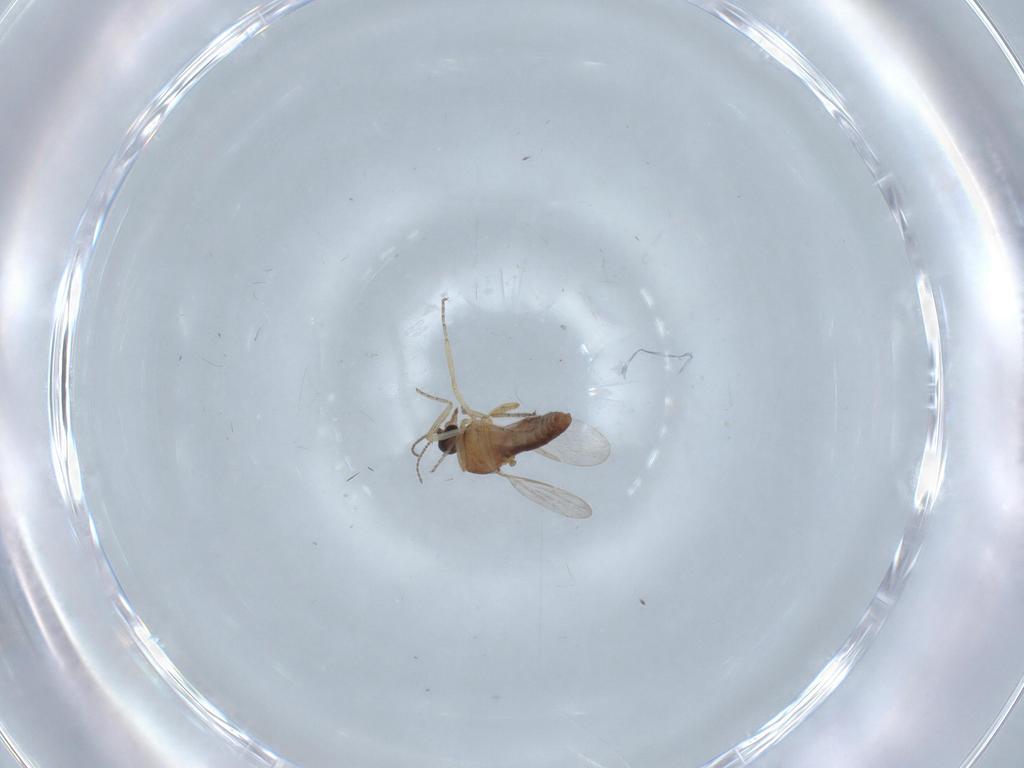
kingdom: Animalia
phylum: Arthropoda
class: Insecta
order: Diptera
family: Ceratopogonidae
